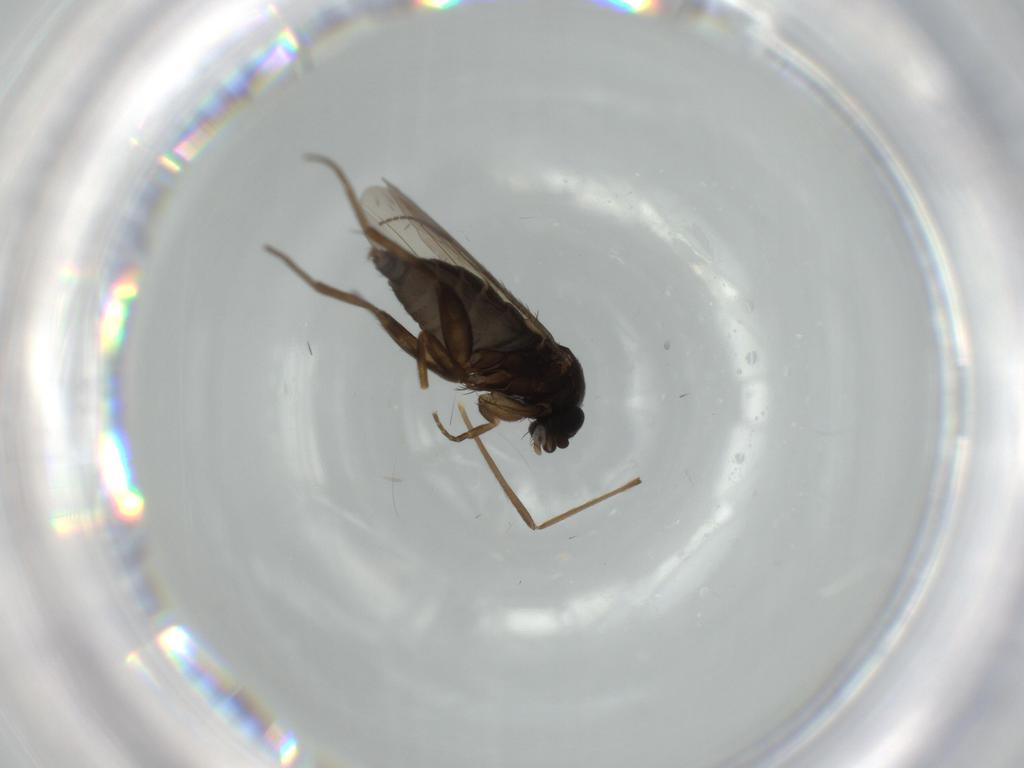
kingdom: Animalia
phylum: Arthropoda
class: Insecta
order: Diptera
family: Phoridae
